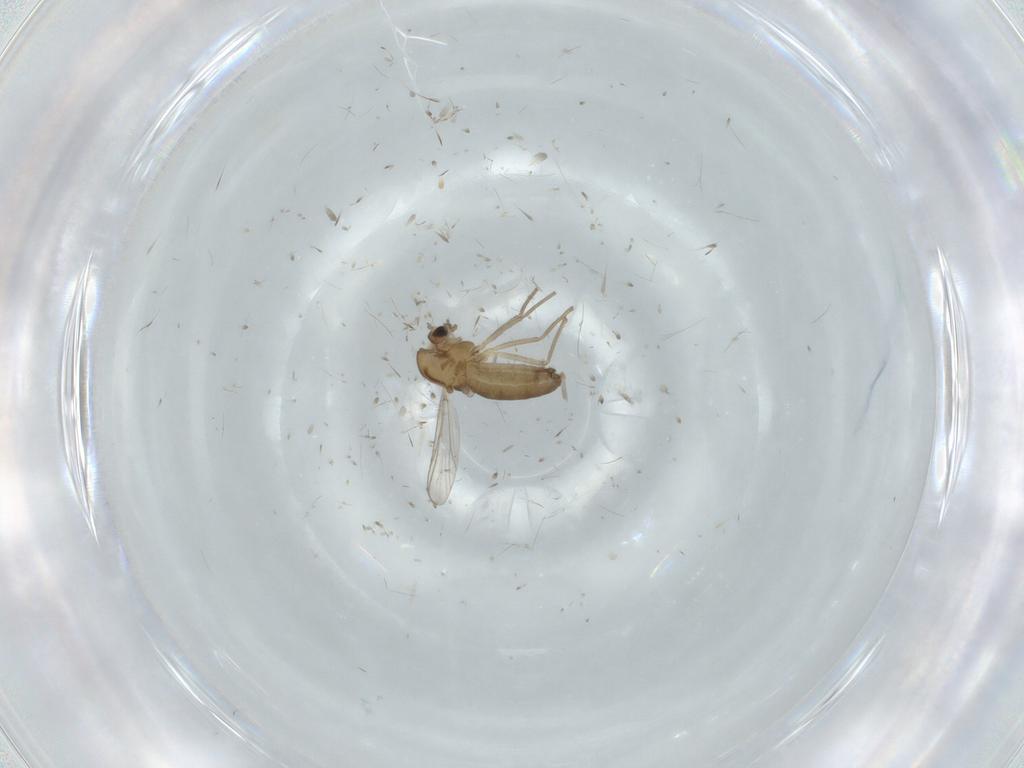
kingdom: Animalia
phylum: Arthropoda
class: Insecta
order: Diptera
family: Chironomidae
